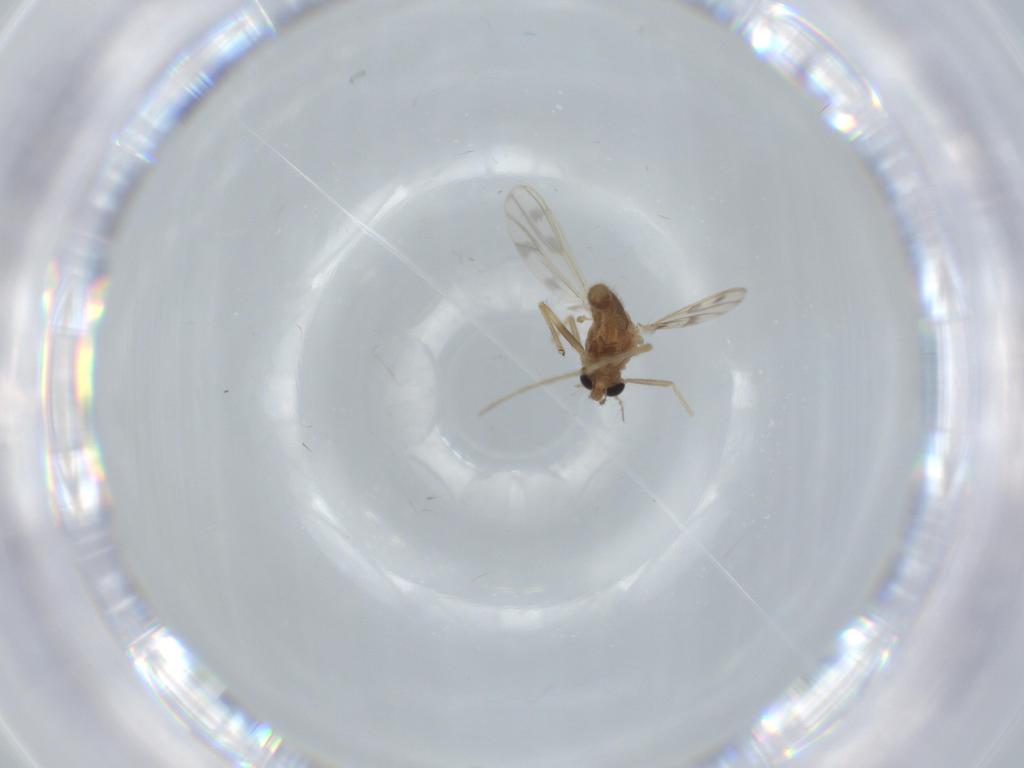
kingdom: Animalia
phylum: Arthropoda
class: Insecta
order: Diptera
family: Chironomidae
